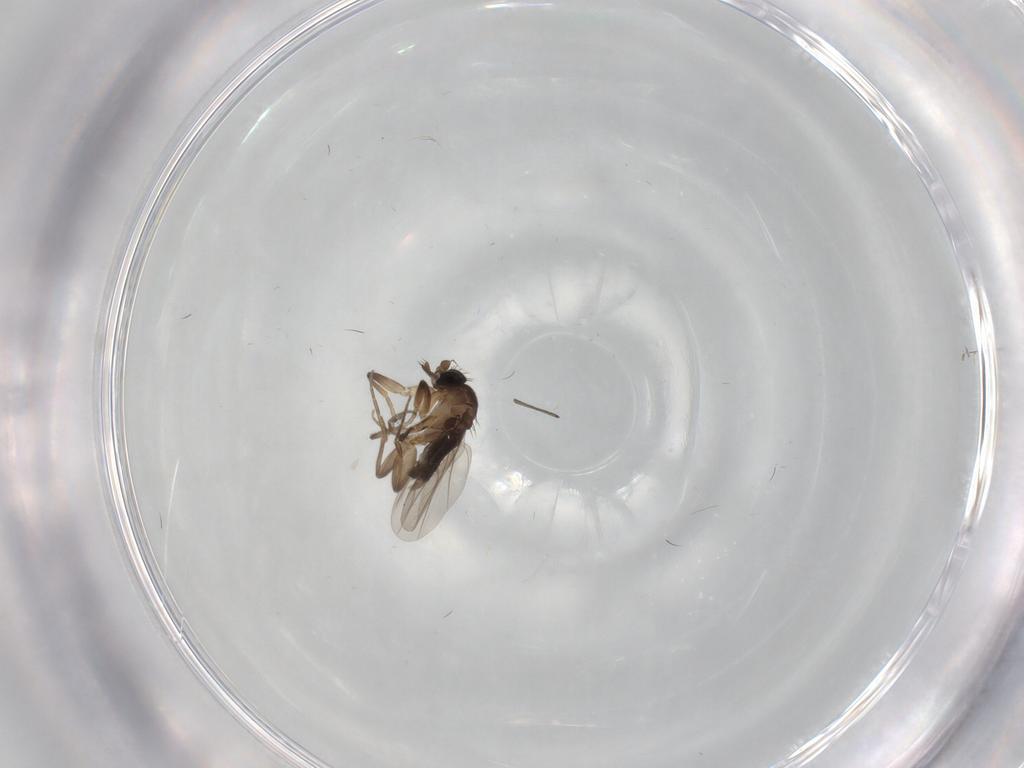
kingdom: Animalia
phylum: Arthropoda
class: Insecta
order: Diptera
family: Phoridae
